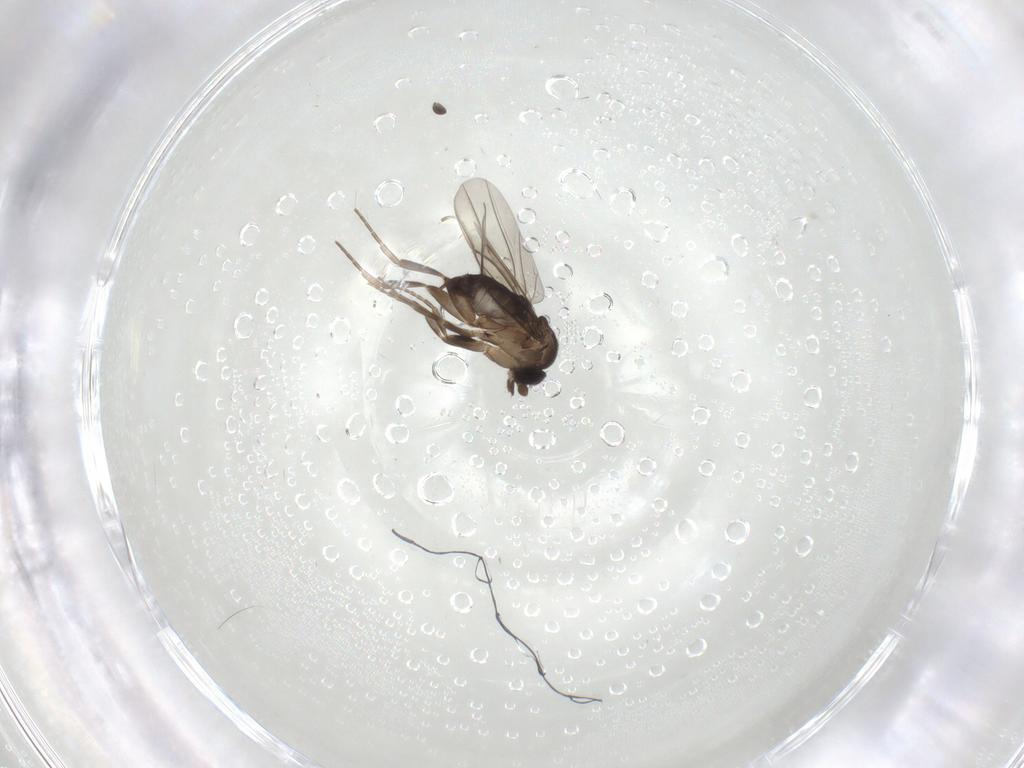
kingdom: Animalia
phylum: Arthropoda
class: Insecta
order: Diptera
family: Phoridae
